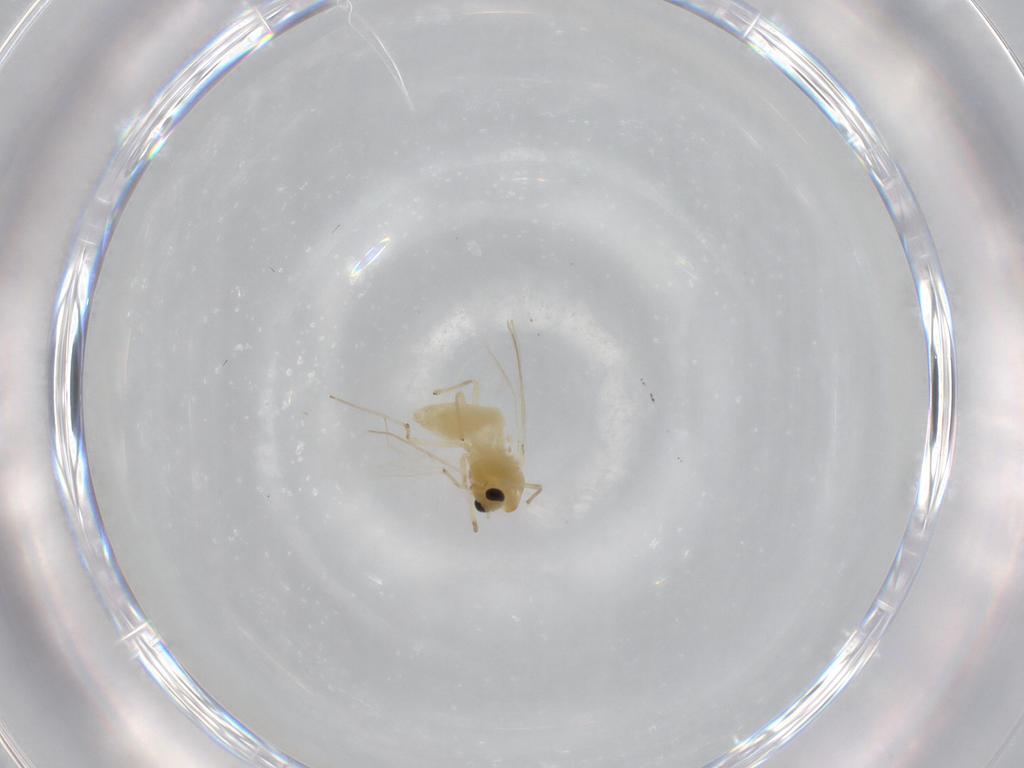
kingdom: Animalia
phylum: Arthropoda
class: Insecta
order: Diptera
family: Chironomidae
